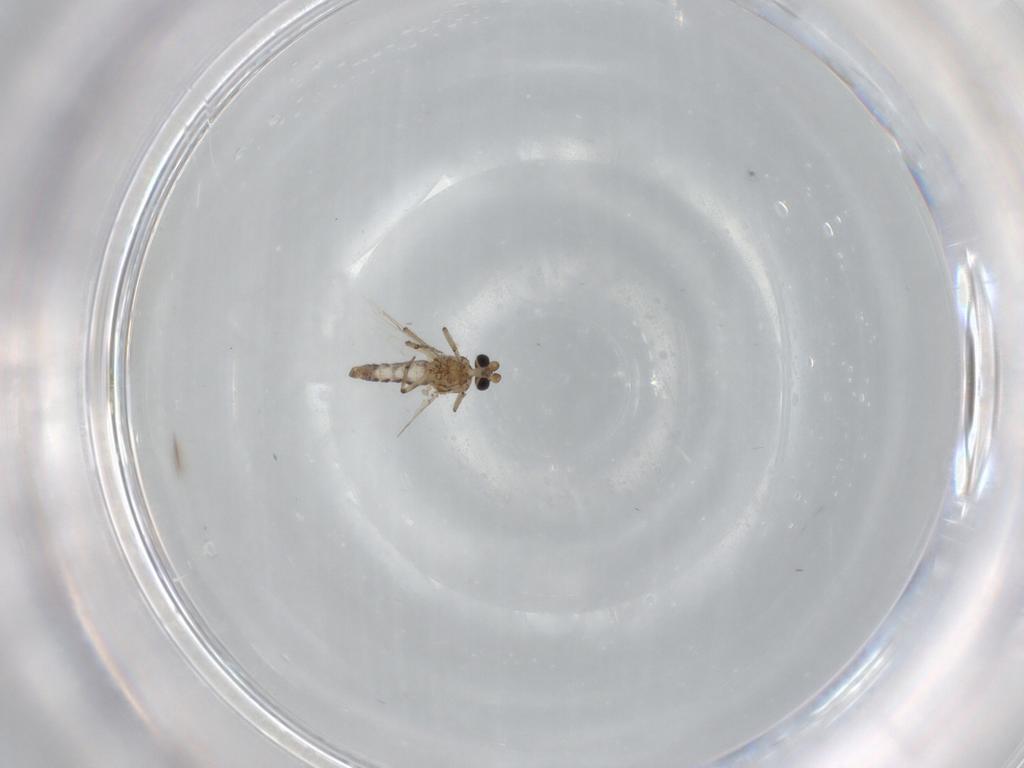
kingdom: Animalia
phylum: Arthropoda
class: Insecta
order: Diptera
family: Ceratopogonidae
